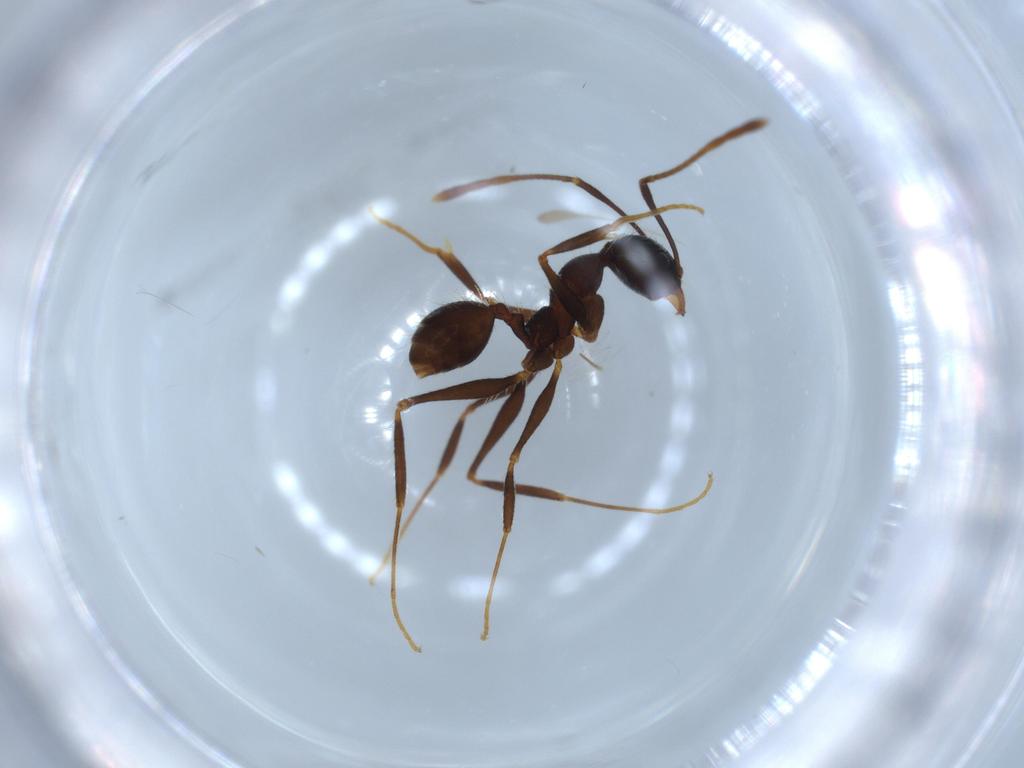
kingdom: Animalia
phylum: Arthropoda
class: Insecta
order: Hymenoptera
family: Formicidae
